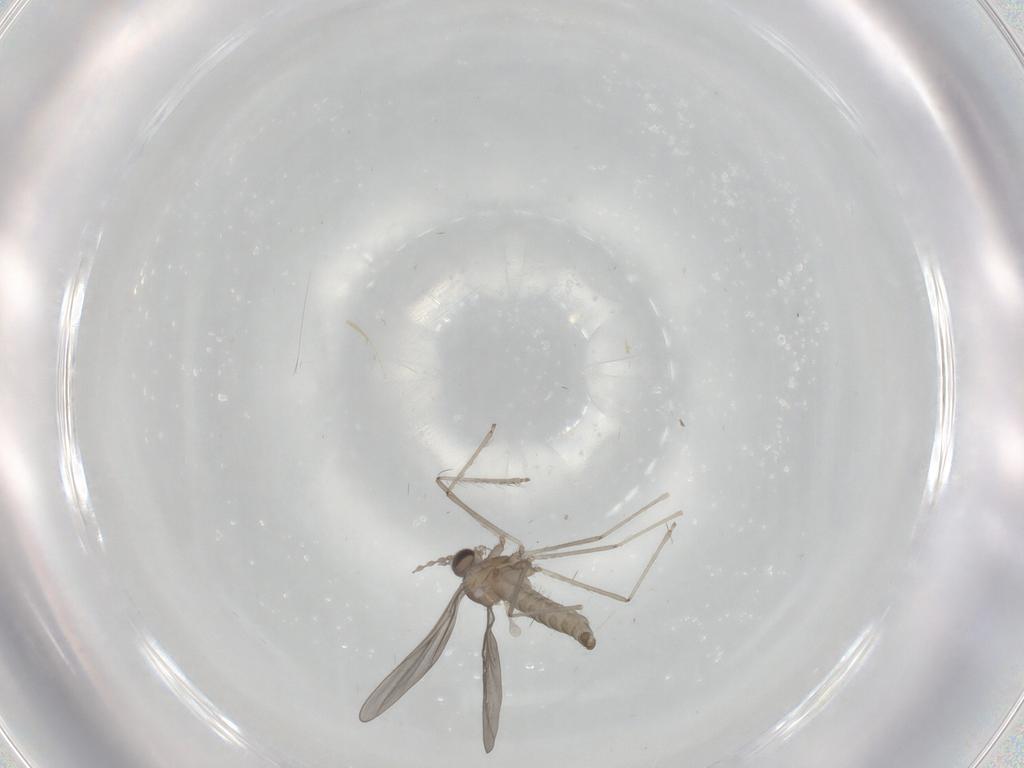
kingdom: Animalia
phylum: Arthropoda
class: Insecta
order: Diptera
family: Cecidomyiidae
